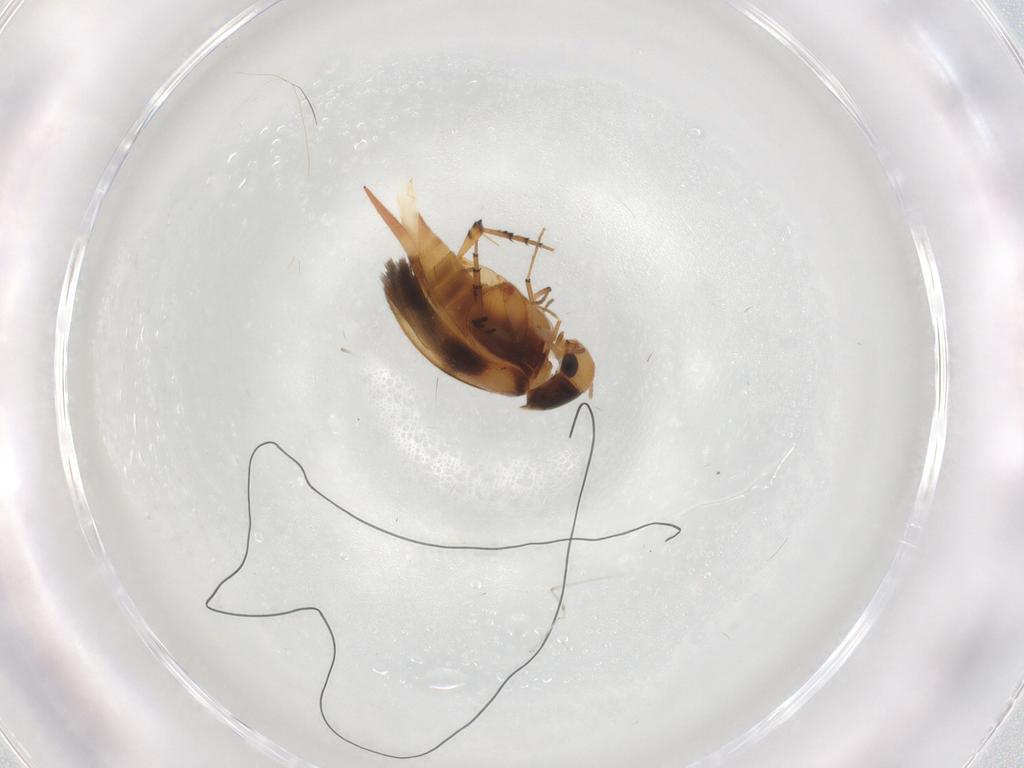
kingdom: Animalia
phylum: Arthropoda
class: Insecta
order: Coleoptera
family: Mordellidae
